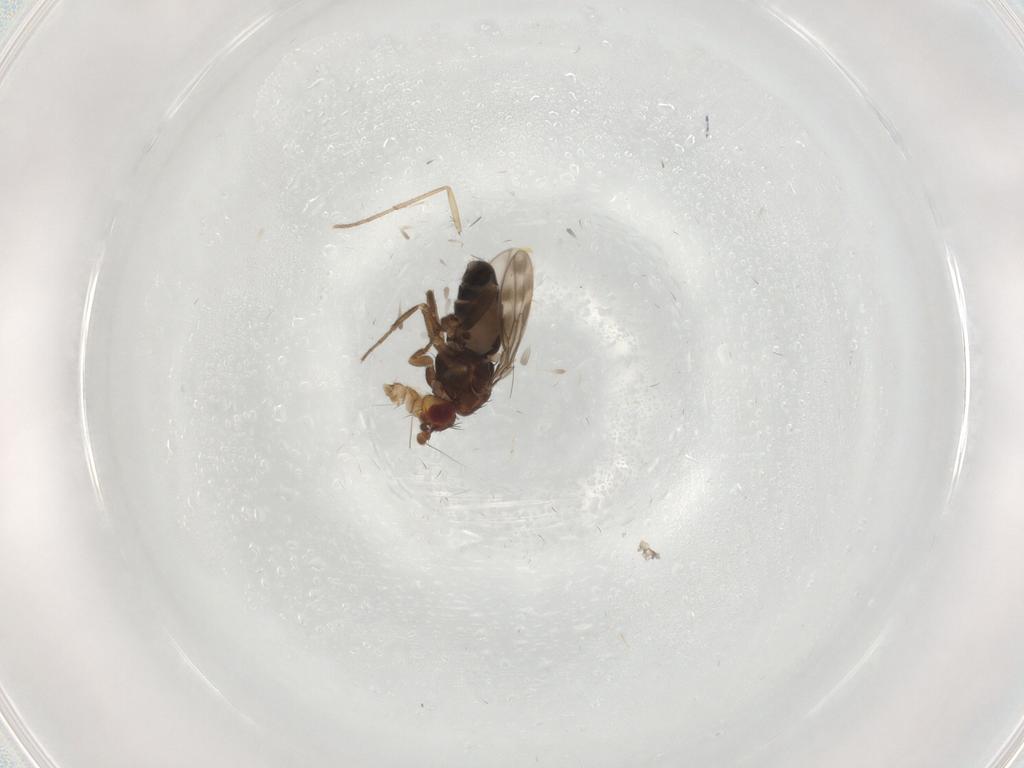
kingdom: Animalia
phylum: Arthropoda
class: Insecta
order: Diptera
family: Sphaeroceridae
